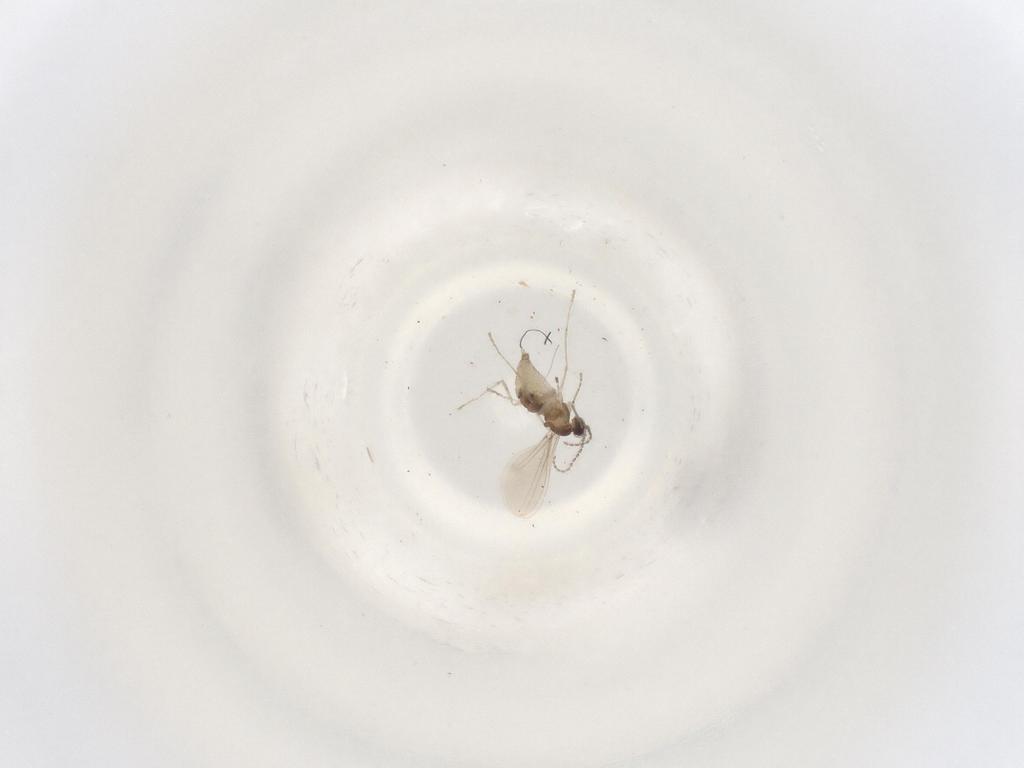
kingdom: Animalia
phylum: Arthropoda
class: Insecta
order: Diptera
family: Cecidomyiidae
